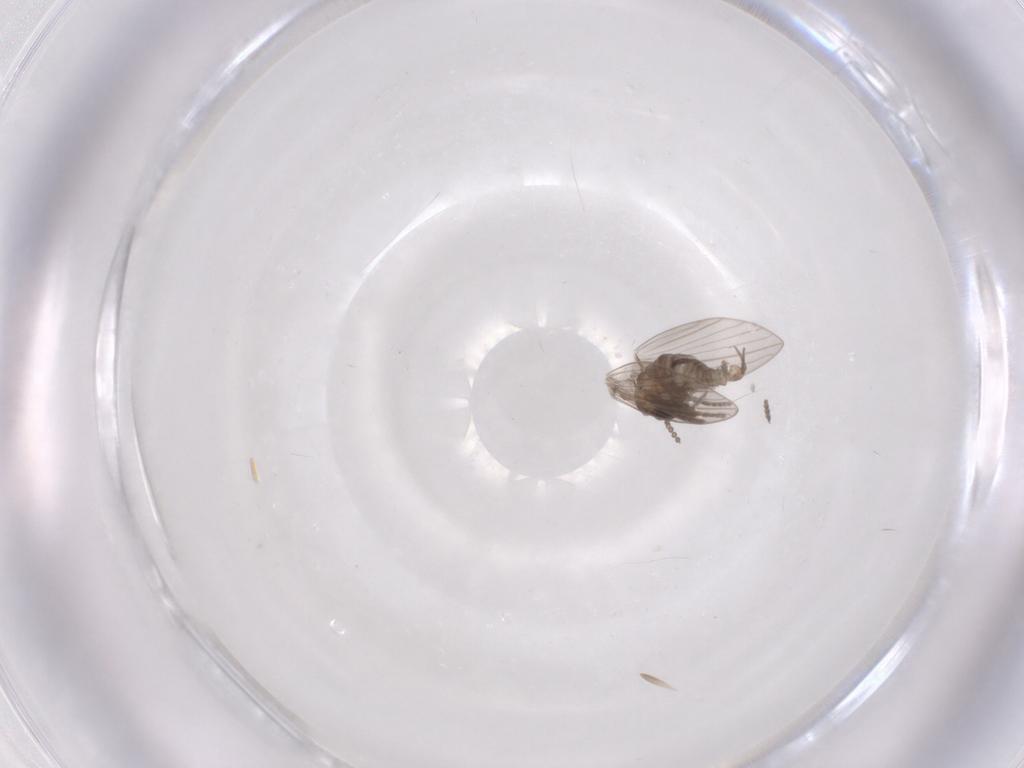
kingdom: Animalia
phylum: Arthropoda
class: Insecta
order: Diptera
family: Psychodidae
